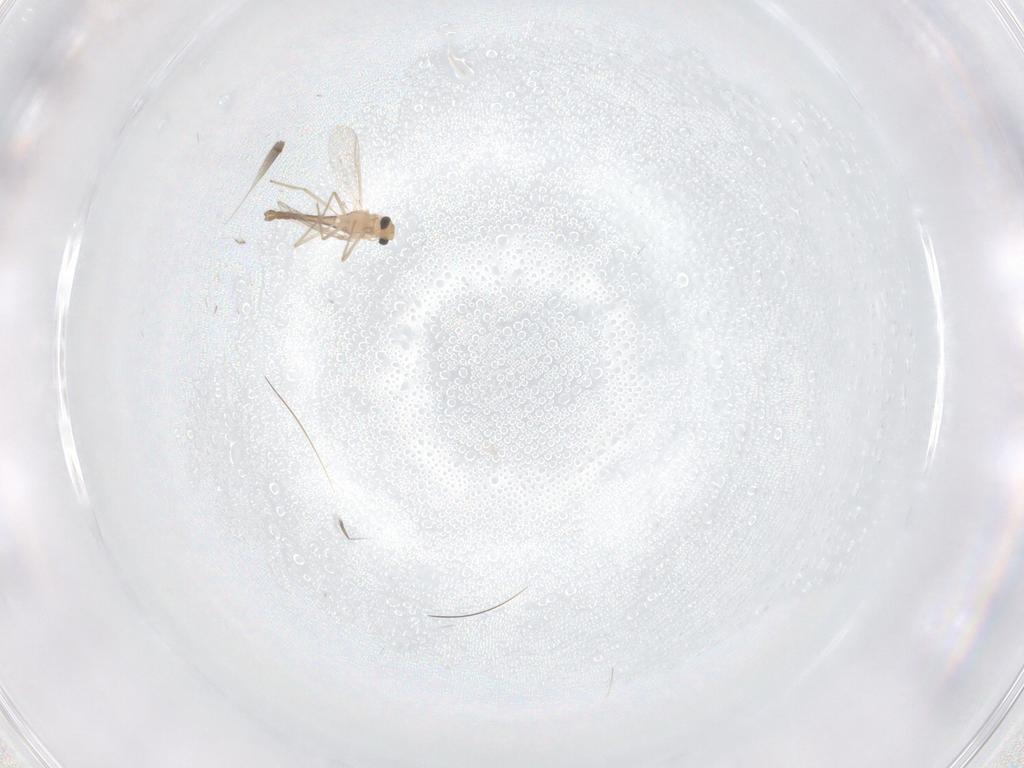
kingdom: Animalia
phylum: Arthropoda
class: Insecta
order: Diptera
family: Chironomidae
